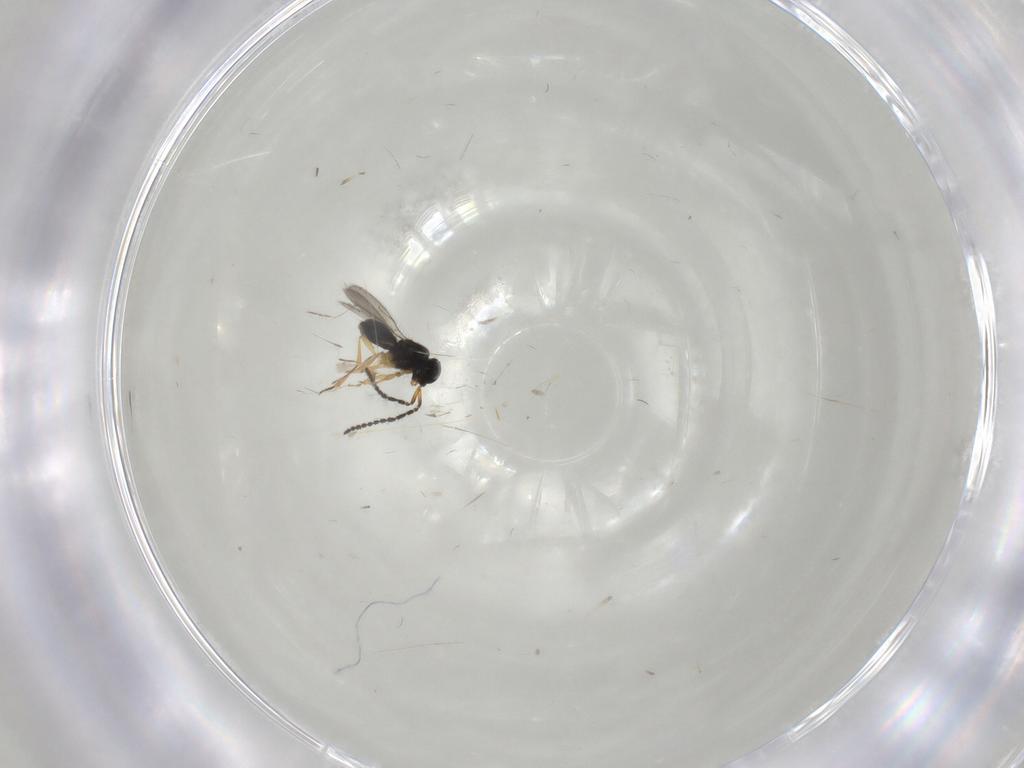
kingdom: Animalia
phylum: Arthropoda
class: Insecta
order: Hymenoptera
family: Scelionidae
